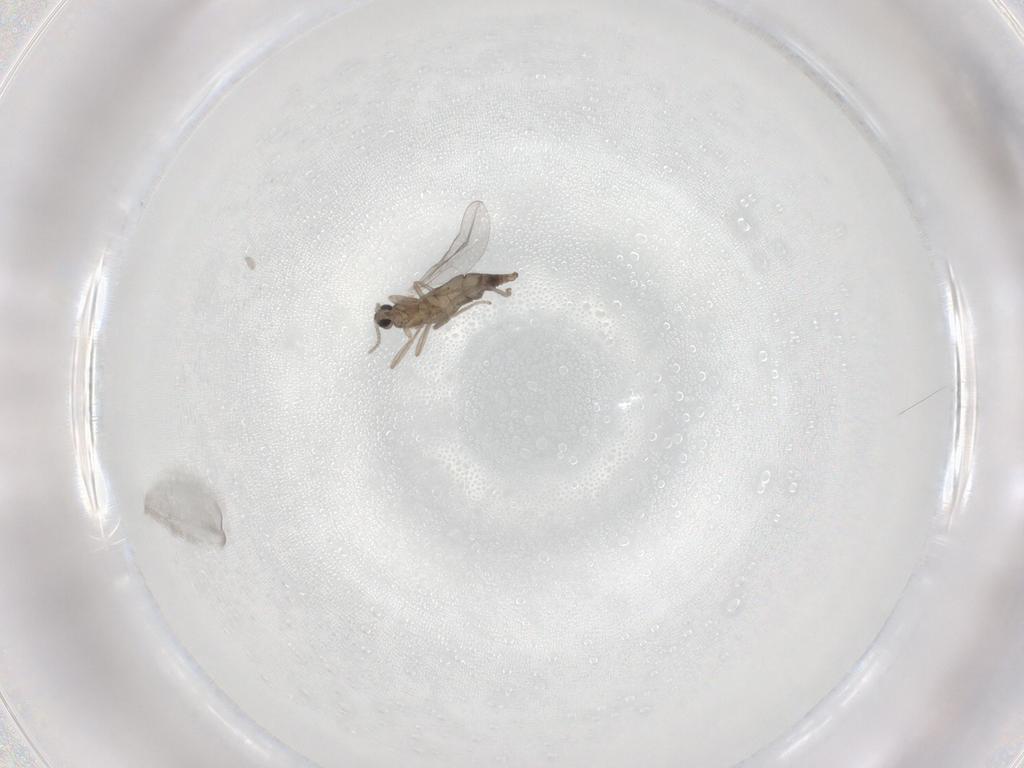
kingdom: Animalia
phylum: Arthropoda
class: Insecta
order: Diptera
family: Cecidomyiidae
